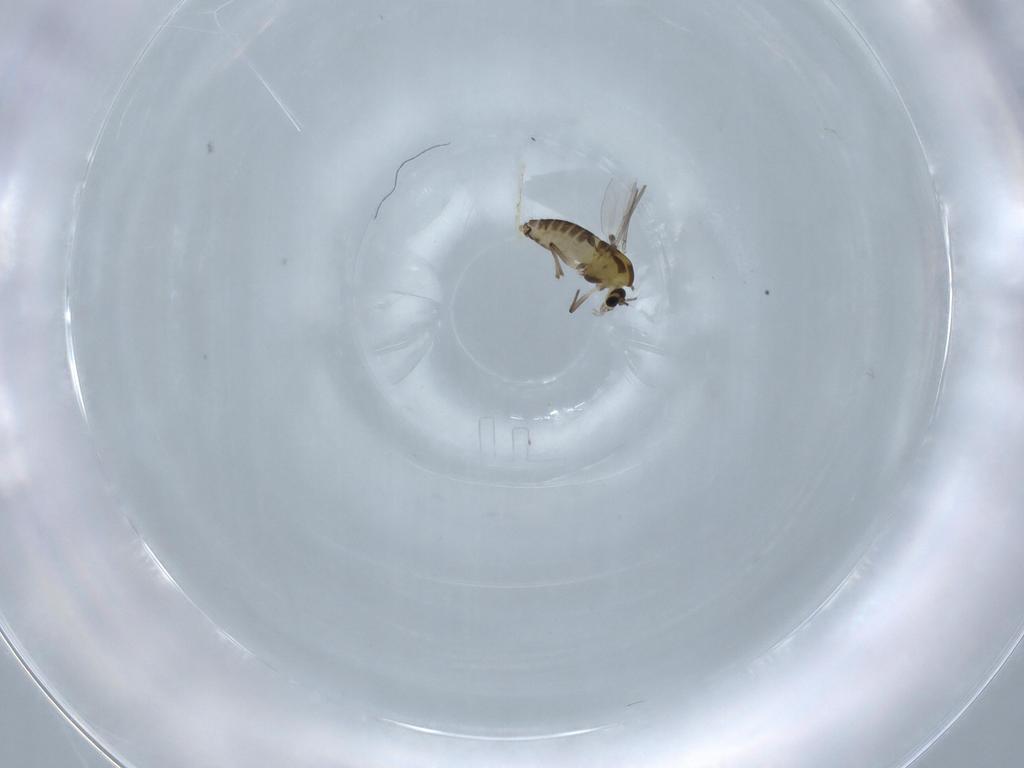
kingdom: Animalia
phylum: Arthropoda
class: Insecta
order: Diptera
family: Chironomidae
